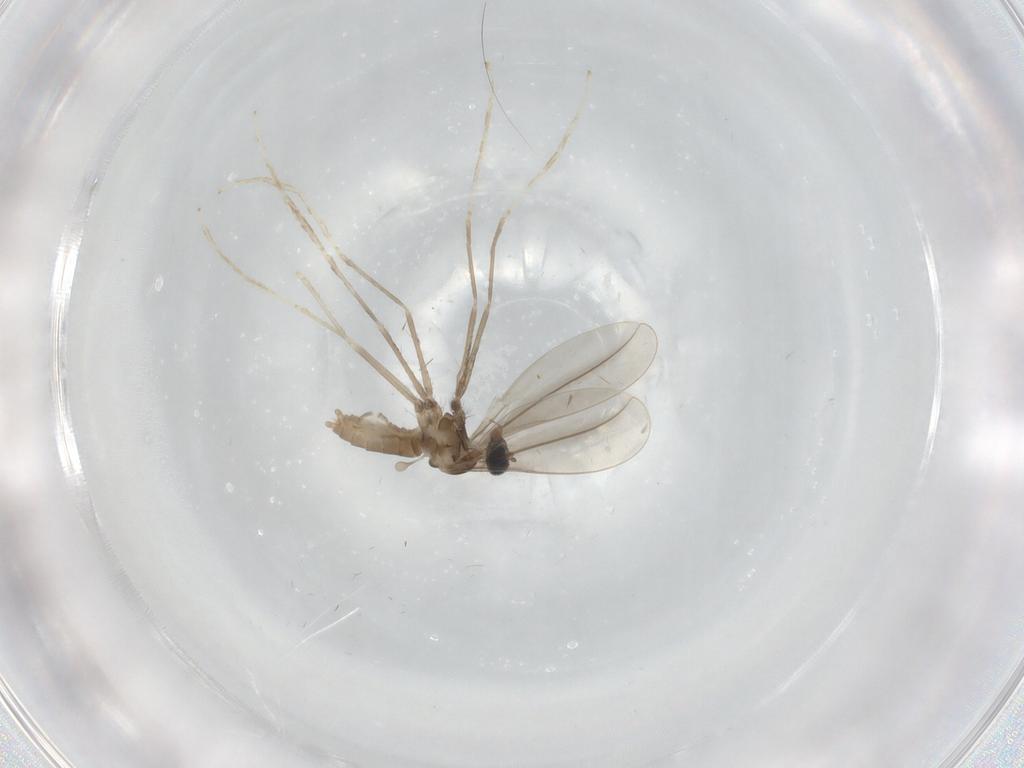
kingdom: Animalia
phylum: Arthropoda
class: Insecta
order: Diptera
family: Cecidomyiidae
